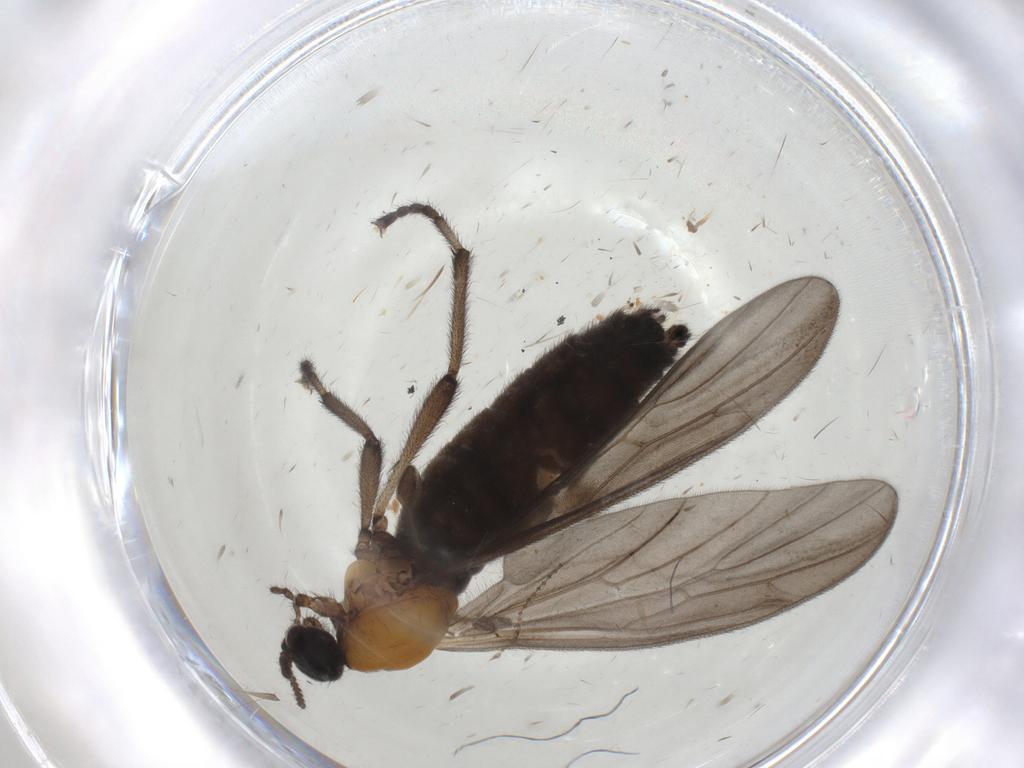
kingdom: Animalia
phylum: Arthropoda
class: Insecta
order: Diptera
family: Bibionidae
